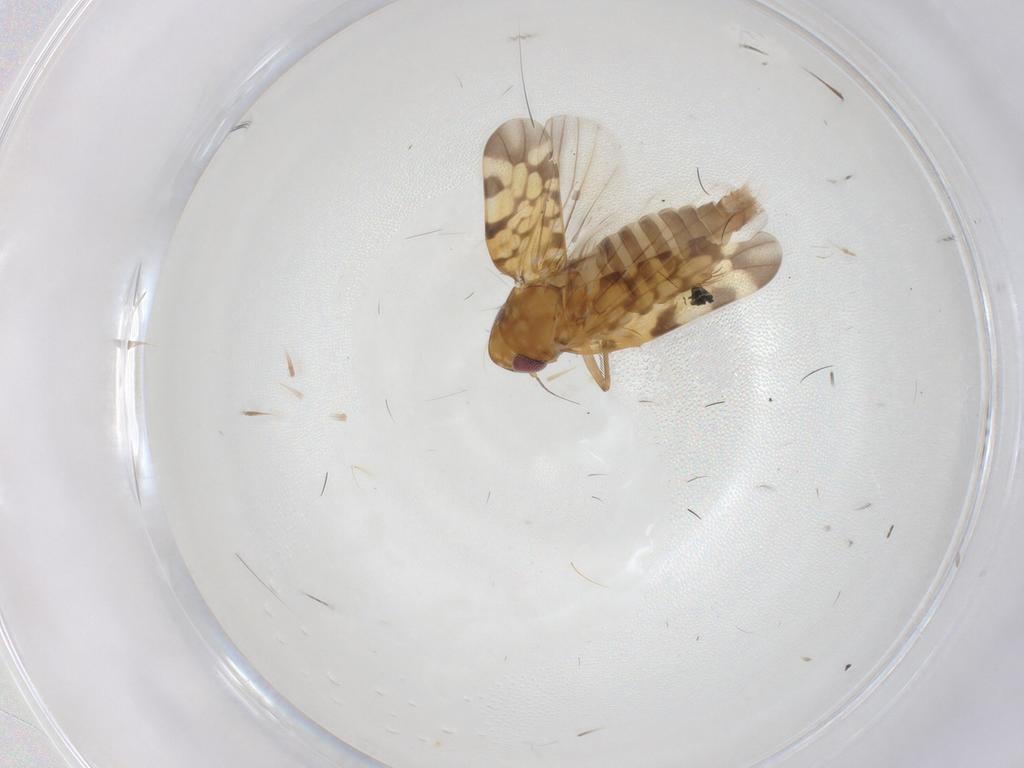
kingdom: Animalia
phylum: Arthropoda
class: Insecta
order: Hemiptera
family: Cicadellidae
